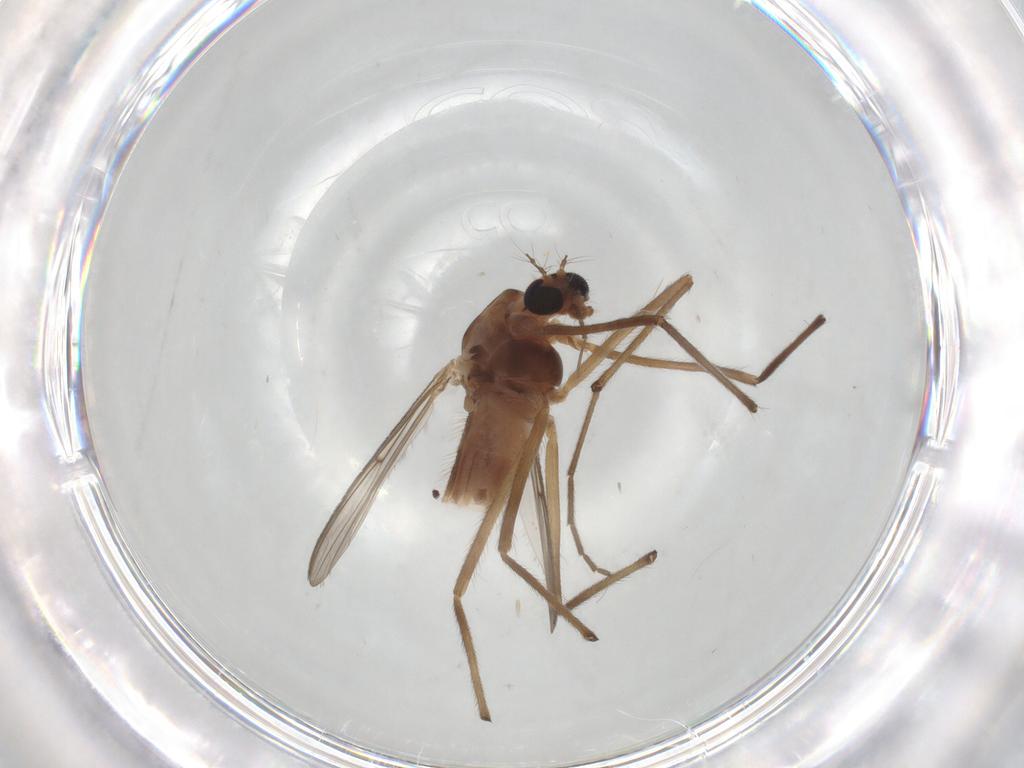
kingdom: Animalia
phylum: Arthropoda
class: Insecta
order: Diptera
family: Chironomidae
